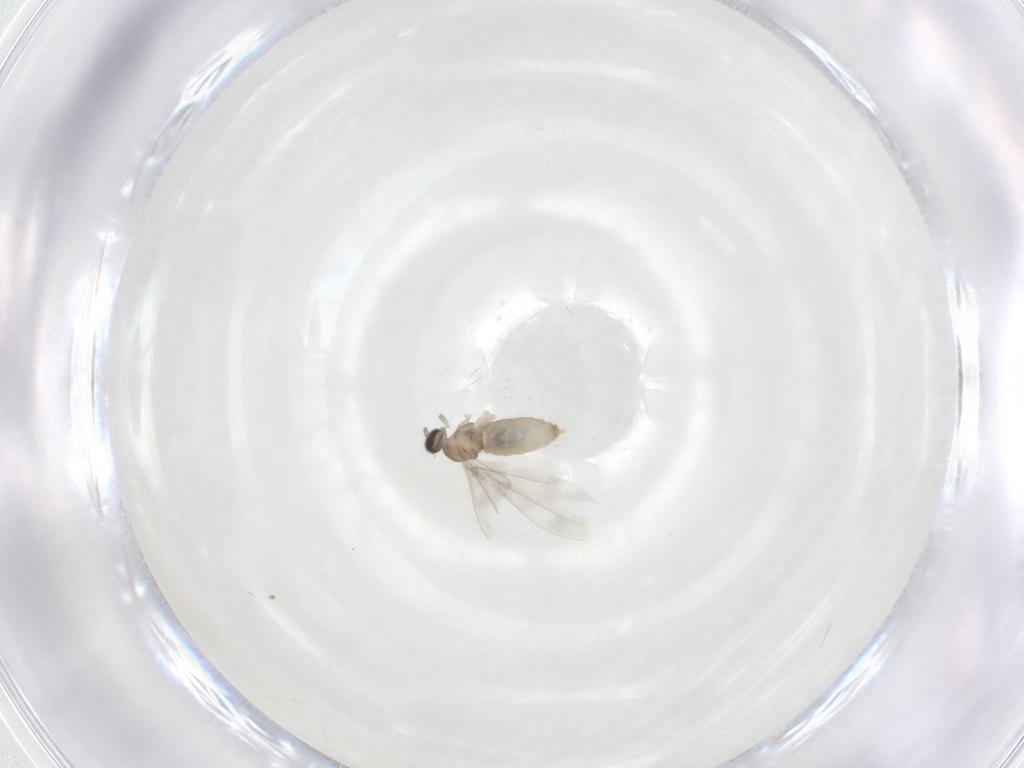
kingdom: Animalia
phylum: Arthropoda
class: Insecta
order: Diptera
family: Cecidomyiidae
